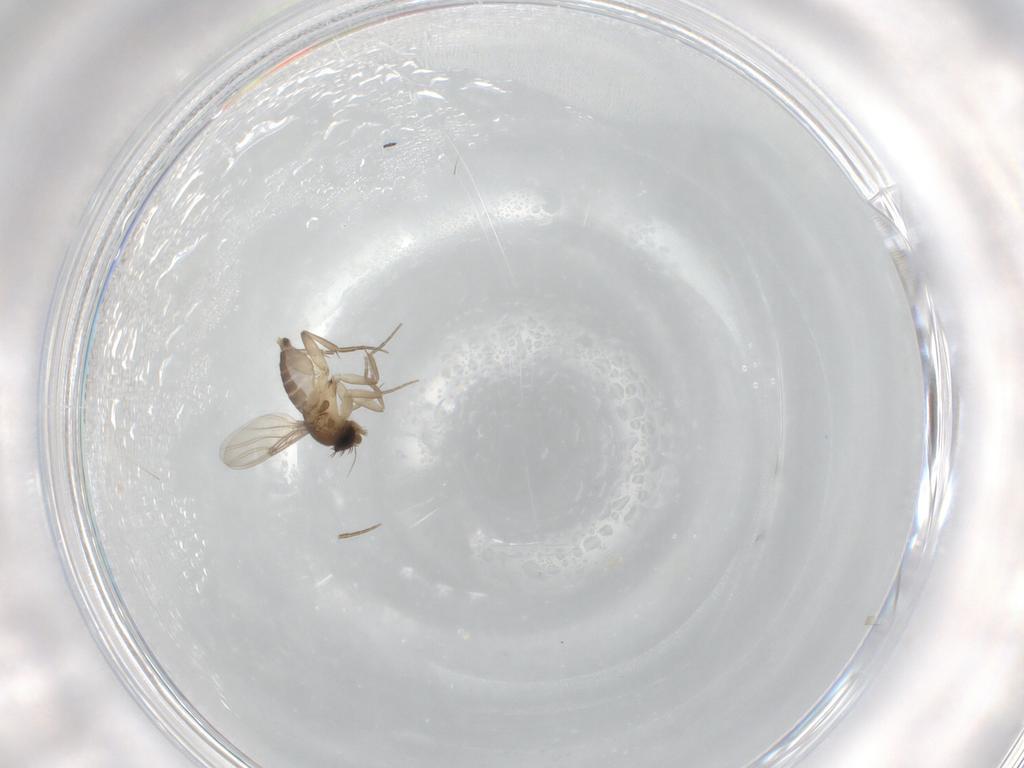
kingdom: Animalia
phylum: Arthropoda
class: Insecta
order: Diptera
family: Phoridae
